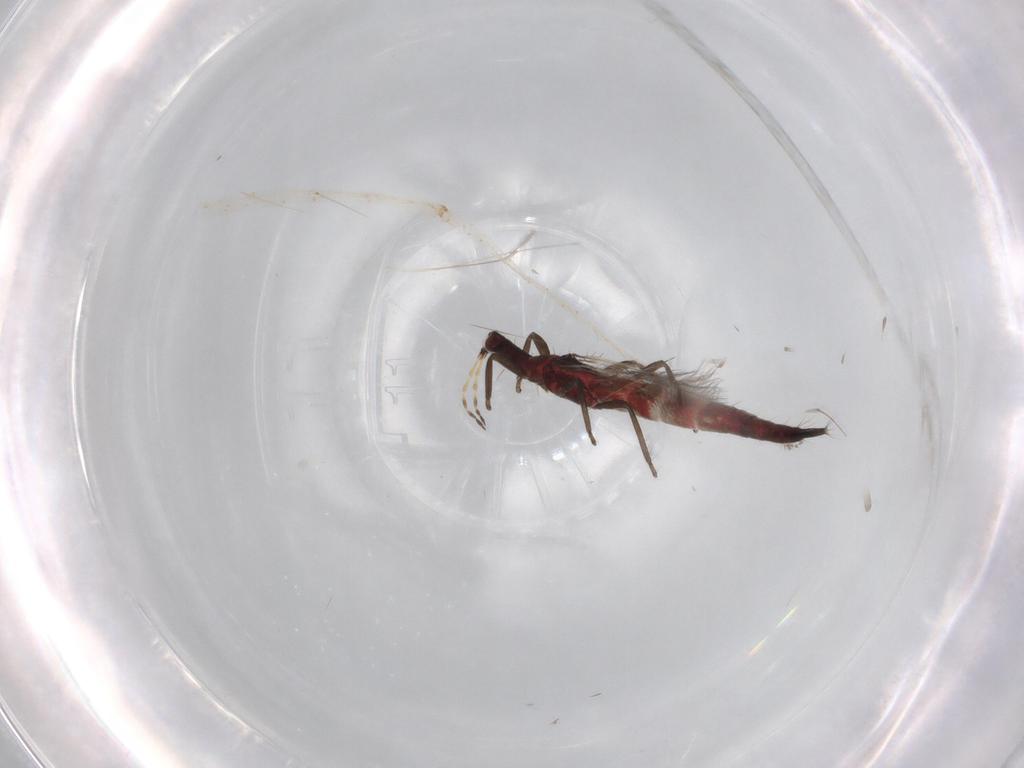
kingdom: Animalia
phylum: Arthropoda
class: Insecta
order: Thysanoptera
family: Phlaeothripidae
